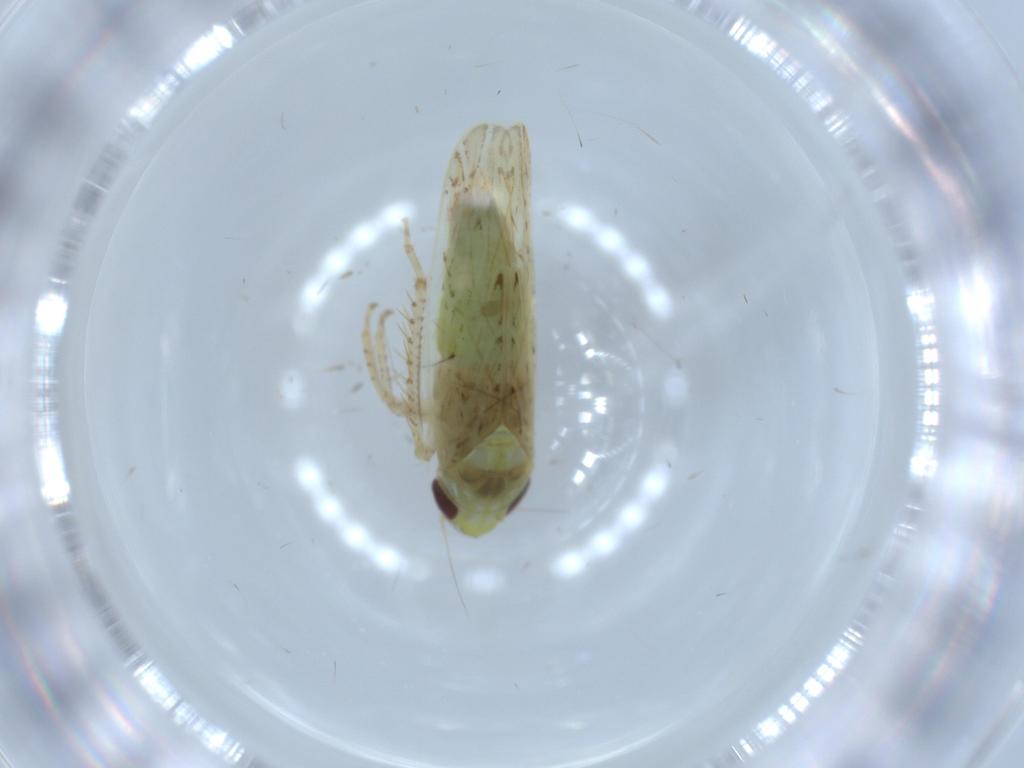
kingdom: Animalia
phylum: Arthropoda
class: Insecta
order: Hemiptera
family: Cicadellidae
